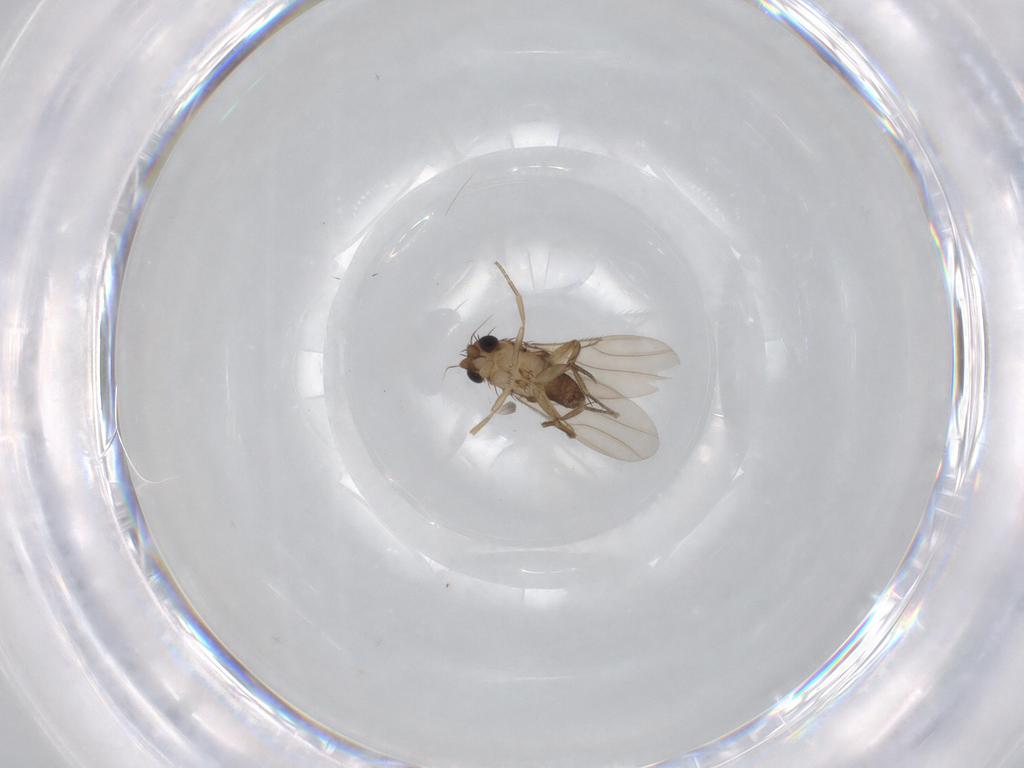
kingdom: Animalia
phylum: Arthropoda
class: Insecta
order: Diptera
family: Phoridae
